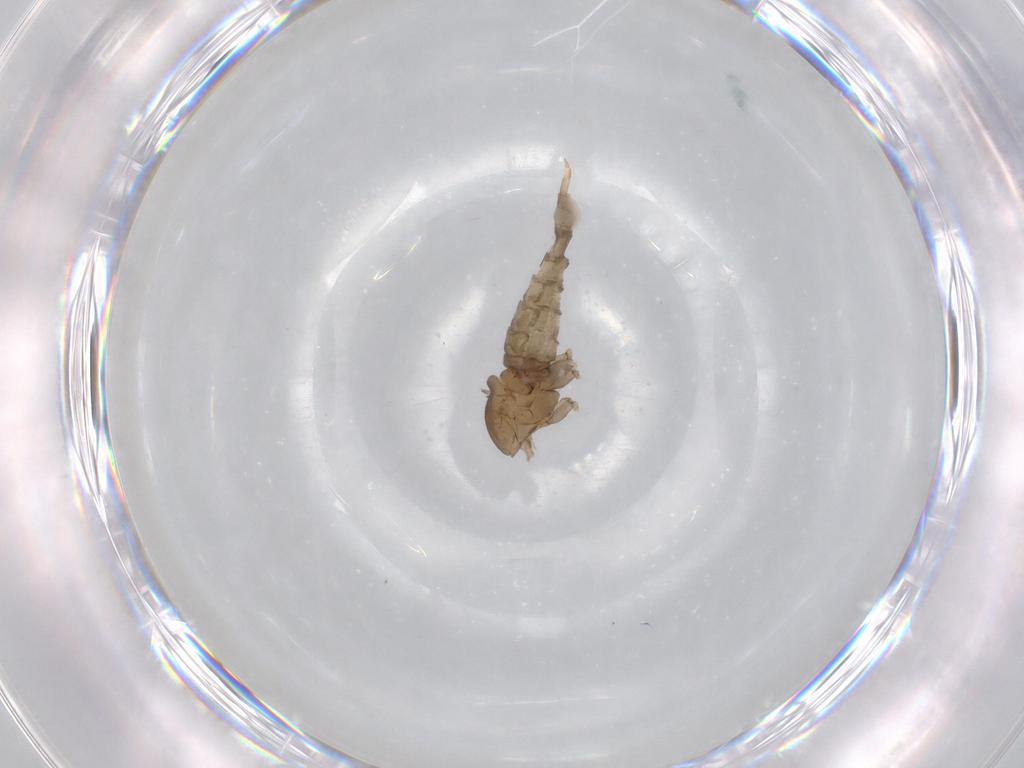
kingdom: Animalia
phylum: Arthropoda
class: Insecta
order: Diptera
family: Cecidomyiidae
